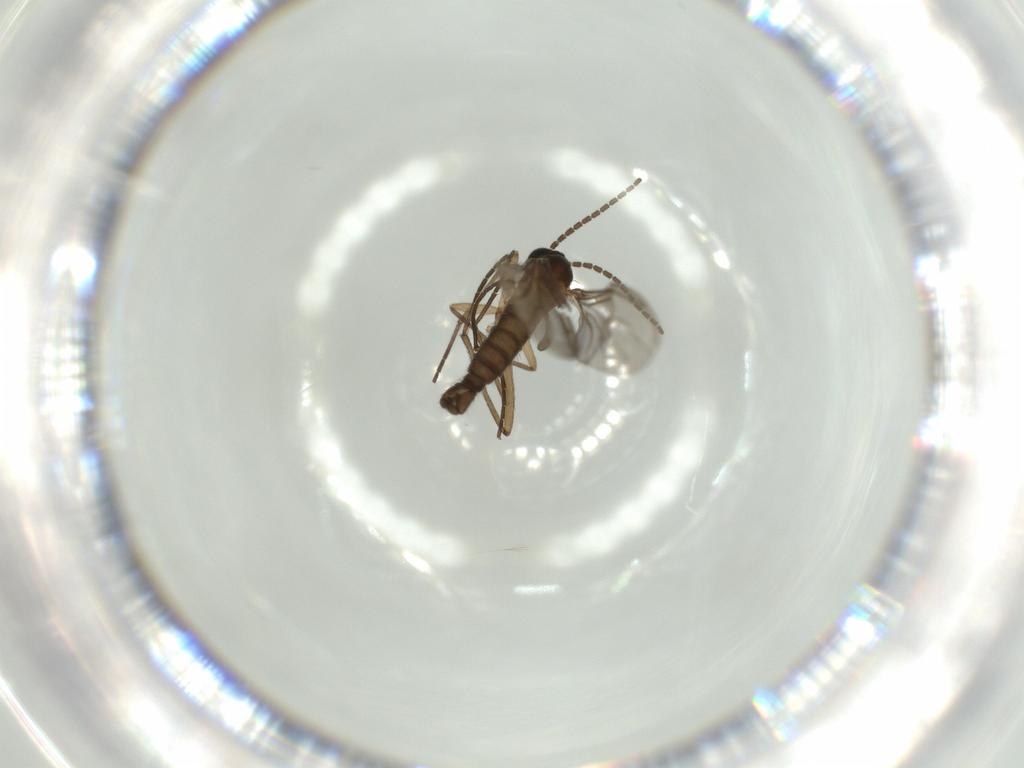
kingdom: Animalia
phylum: Arthropoda
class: Insecta
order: Diptera
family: Sciaridae
